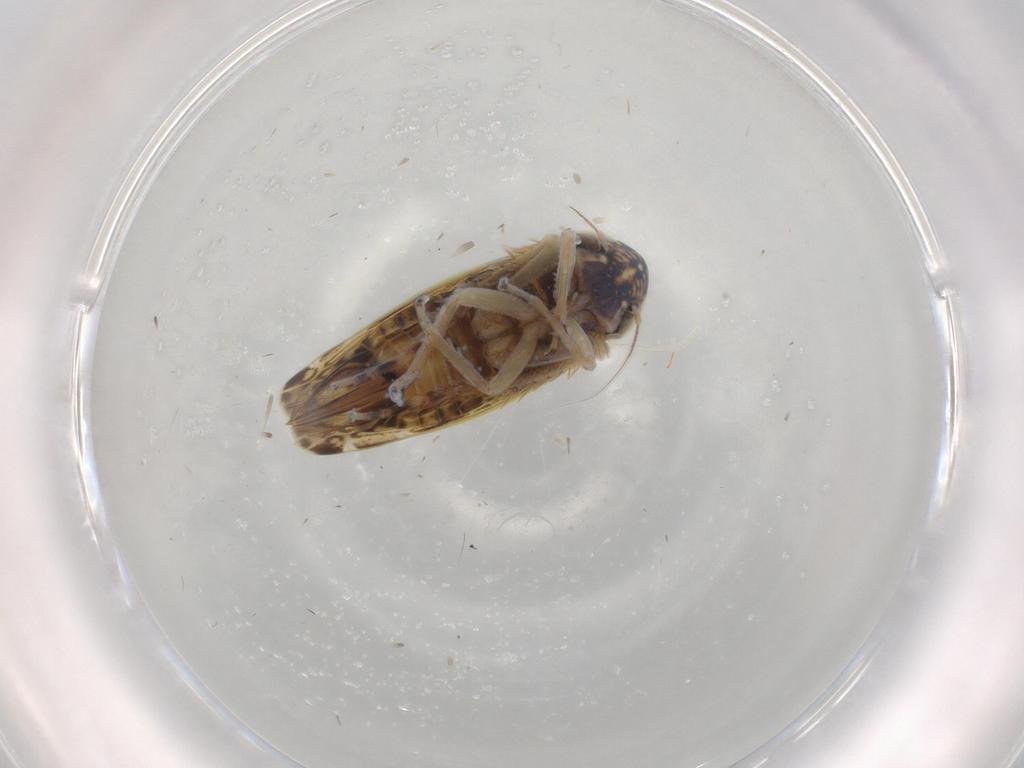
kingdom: Animalia
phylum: Arthropoda
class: Insecta
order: Hemiptera
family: Cicadellidae
